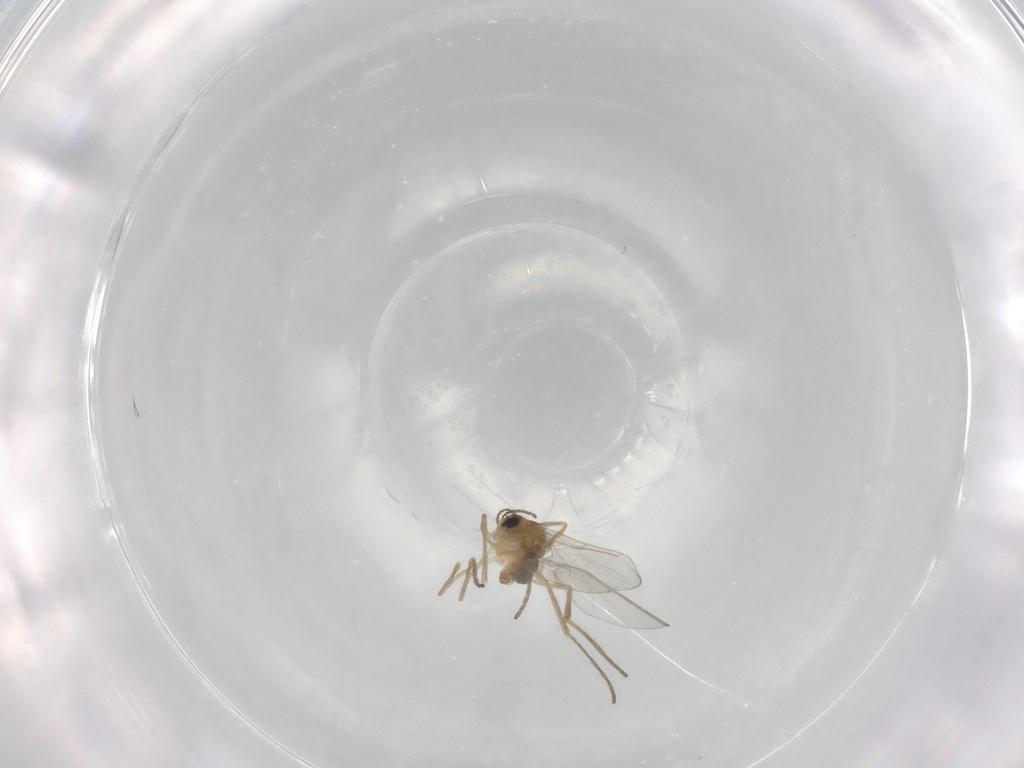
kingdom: Animalia
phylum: Arthropoda
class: Insecta
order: Diptera
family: Cecidomyiidae
